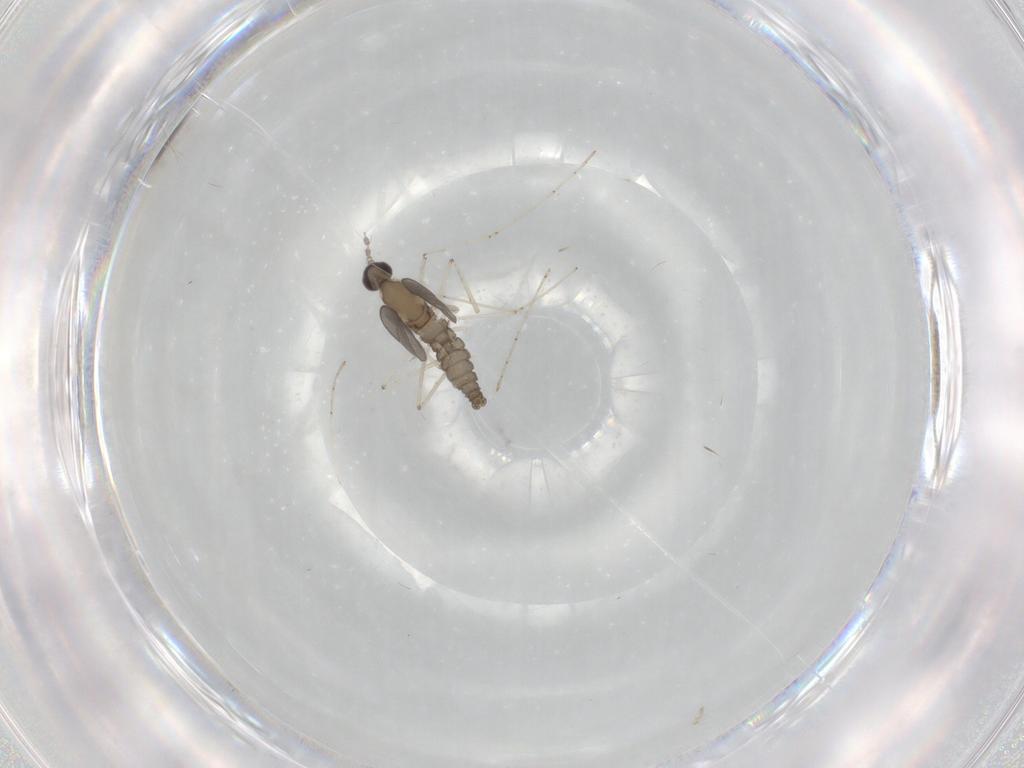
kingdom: Animalia
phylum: Arthropoda
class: Insecta
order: Diptera
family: Cecidomyiidae
